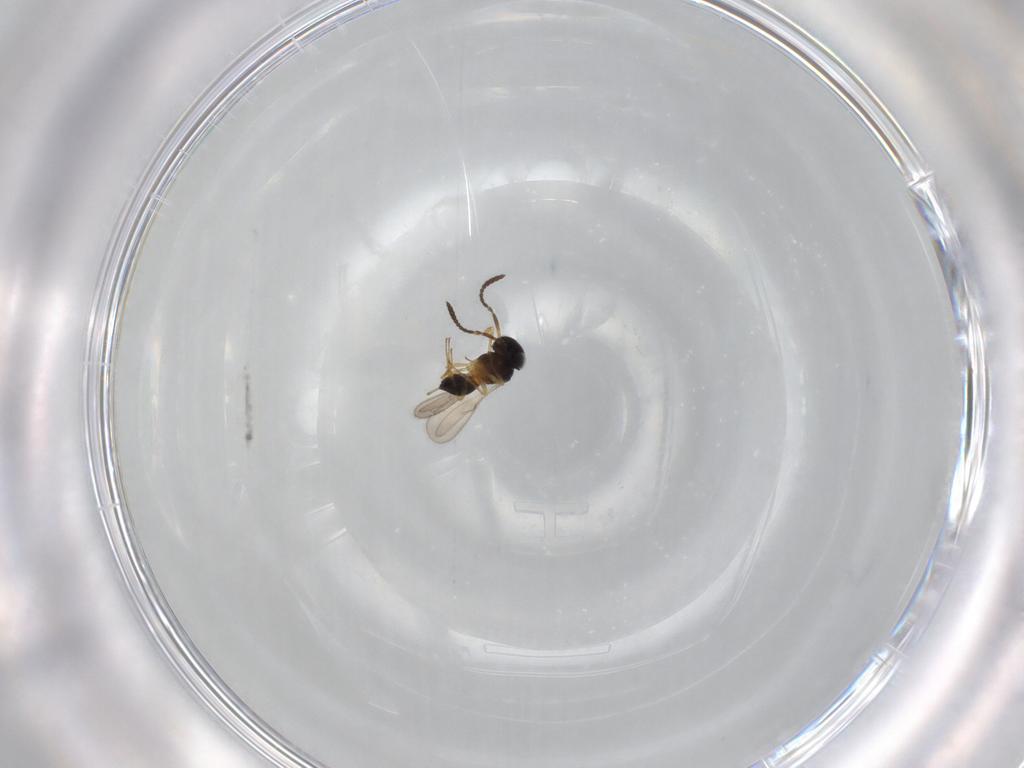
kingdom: Animalia
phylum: Arthropoda
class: Insecta
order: Hymenoptera
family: Scelionidae
